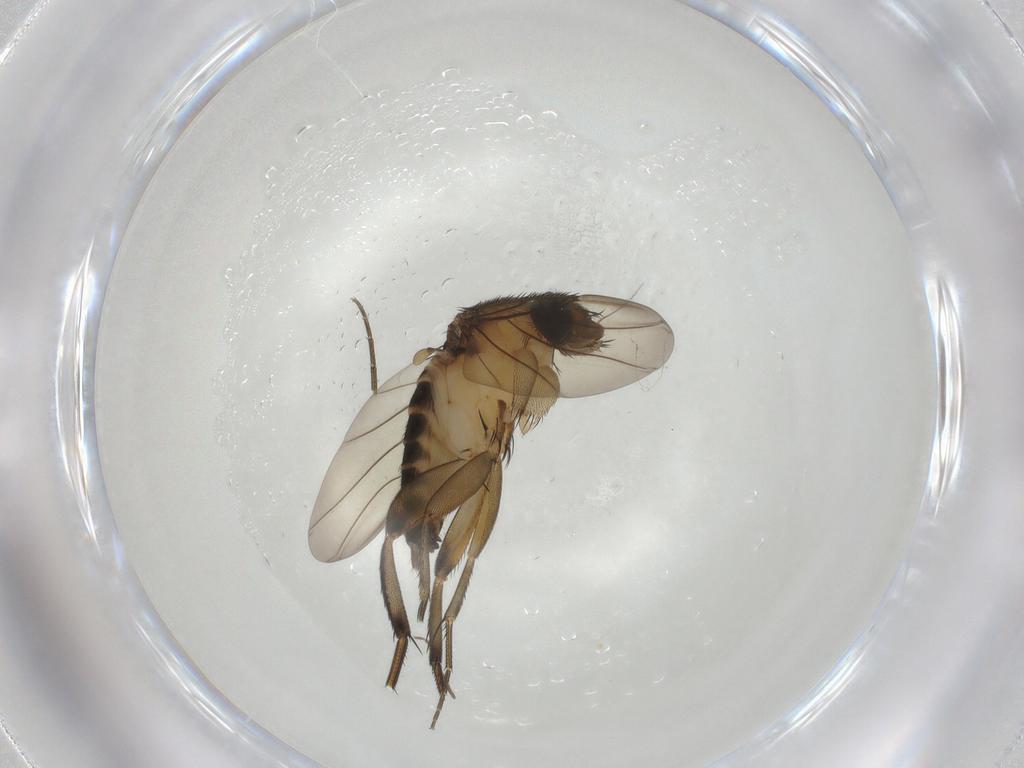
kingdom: Animalia
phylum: Arthropoda
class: Insecta
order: Diptera
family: Phoridae
